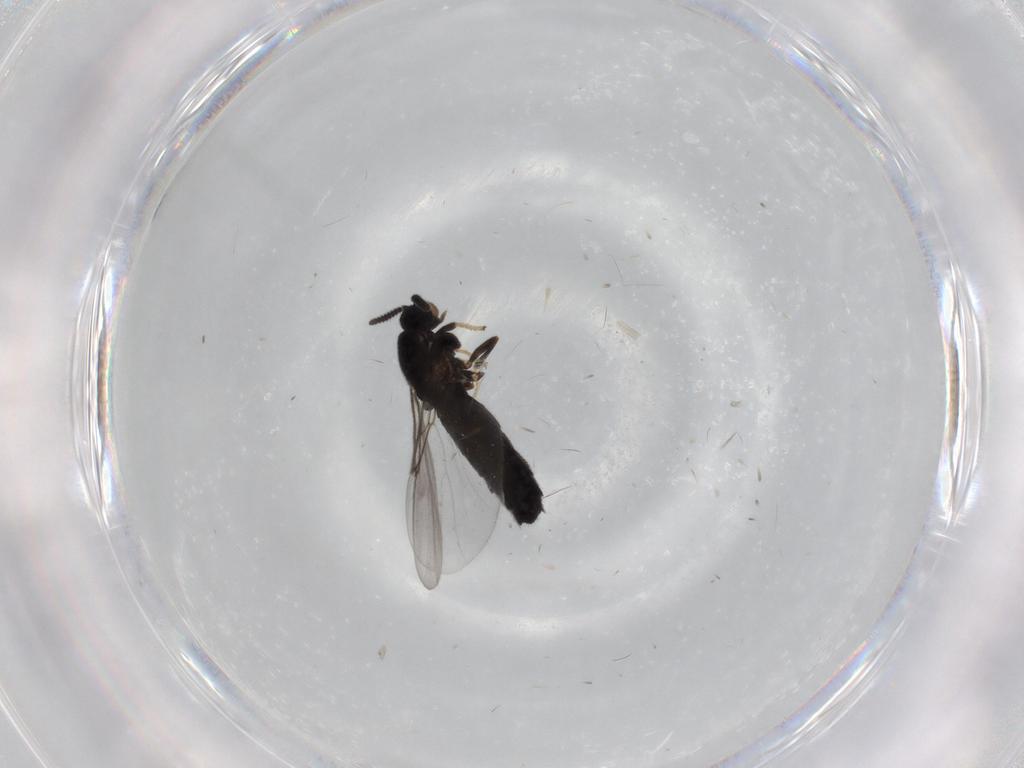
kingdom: Animalia
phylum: Arthropoda
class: Insecta
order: Diptera
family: Scatopsidae
